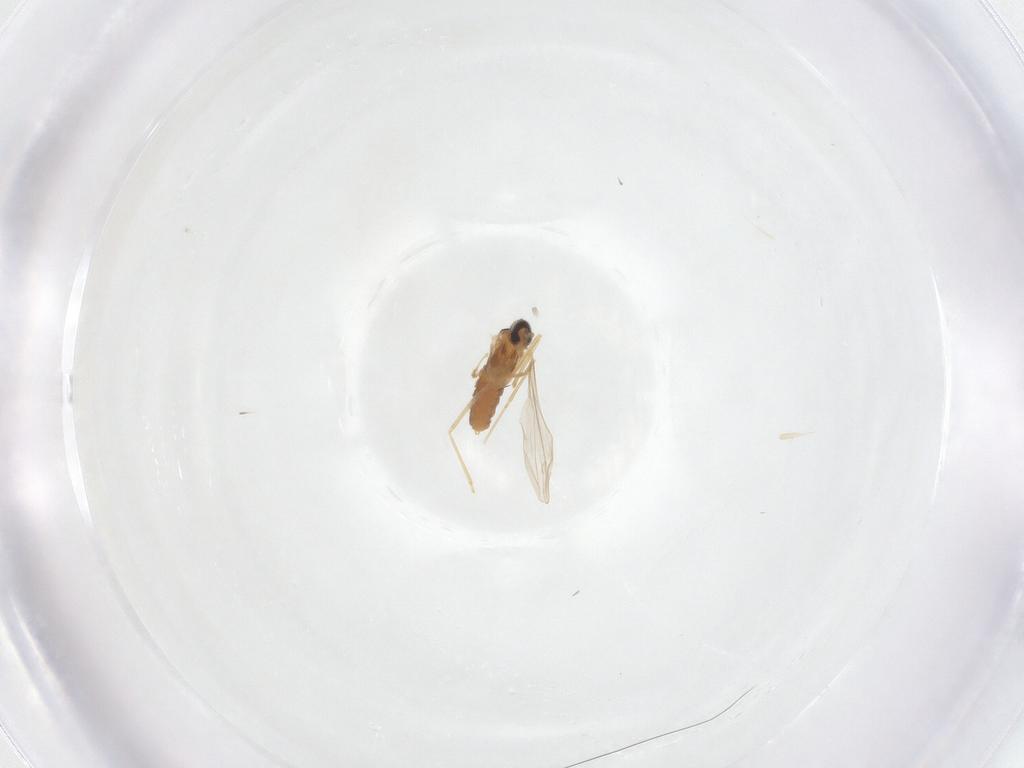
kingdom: Animalia
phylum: Arthropoda
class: Insecta
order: Diptera
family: Cecidomyiidae
